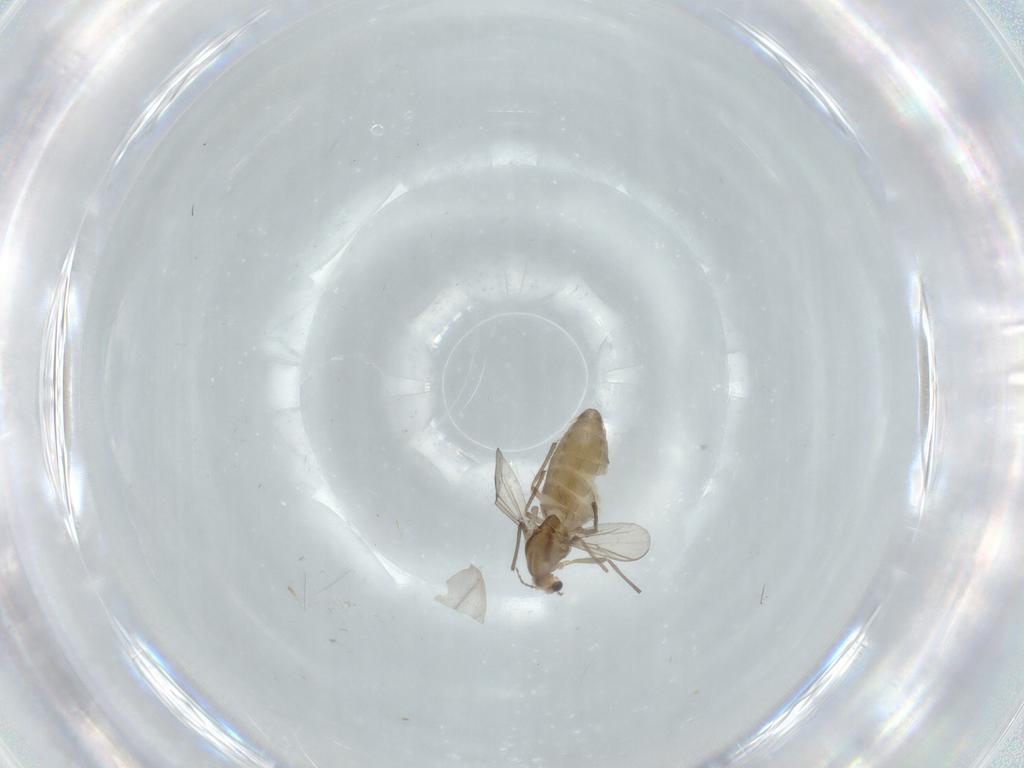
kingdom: Animalia
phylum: Arthropoda
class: Insecta
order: Diptera
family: Chironomidae
